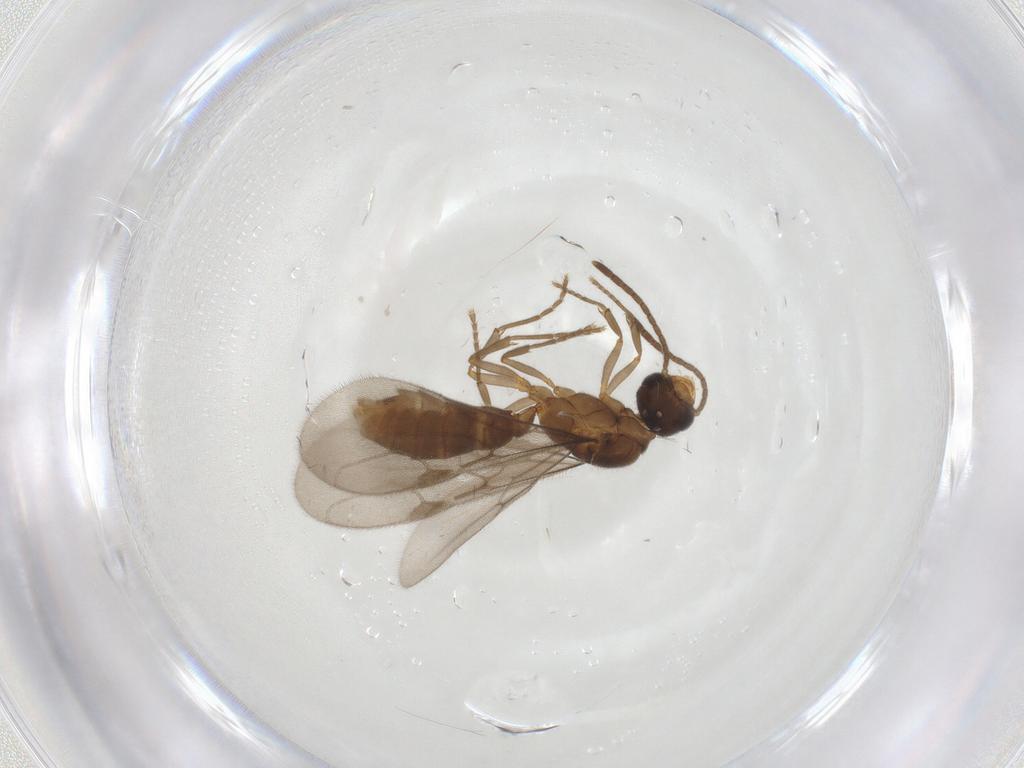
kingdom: Animalia
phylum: Arthropoda
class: Insecta
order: Hymenoptera
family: Formicidae
